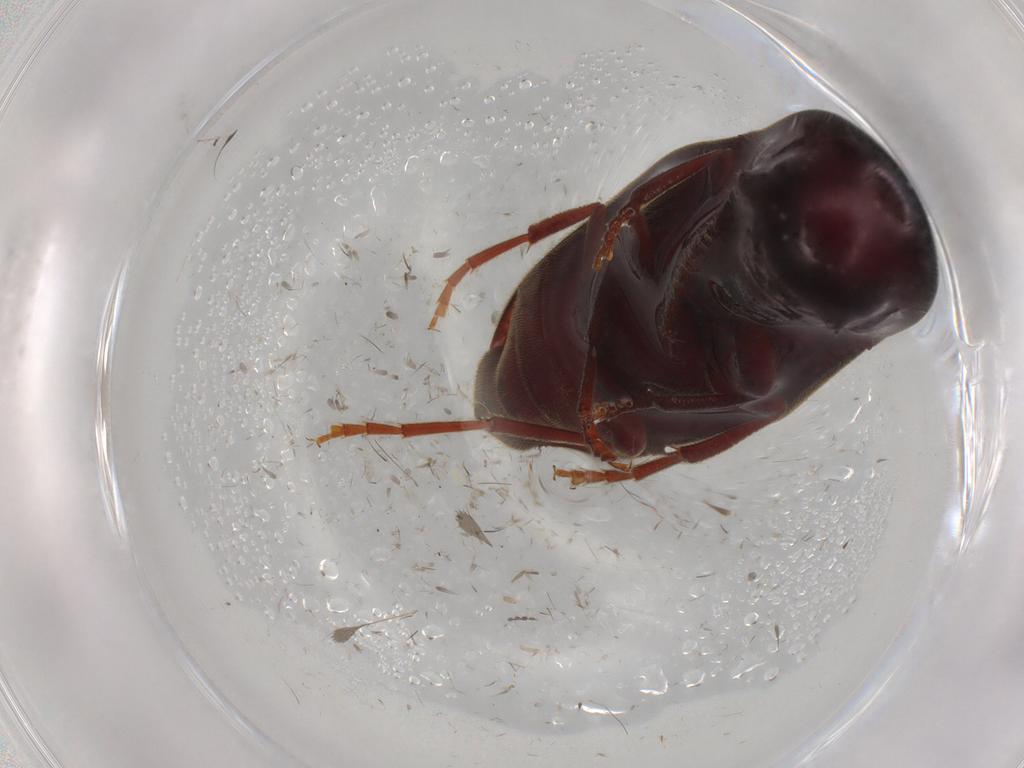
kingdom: Animalia
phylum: Arthropoda
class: Insecta
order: Coleoptera
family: Eucnemidae
